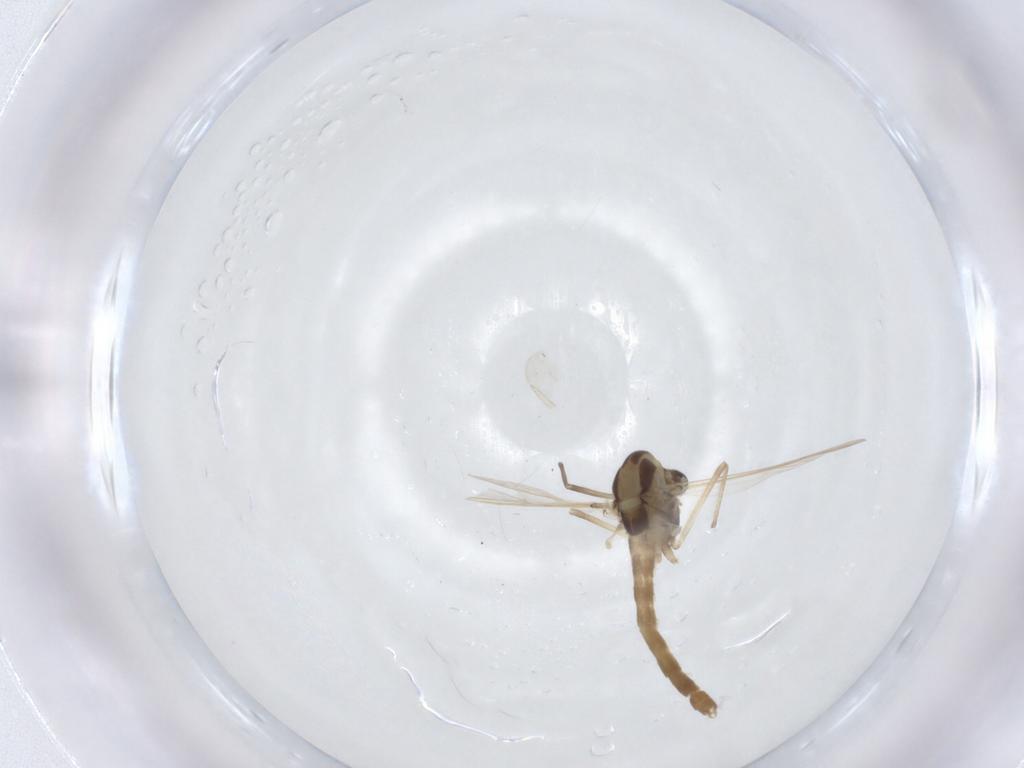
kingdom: Animalia
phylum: Arthropoda
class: Insecta
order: Diptera
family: Chironomidae
